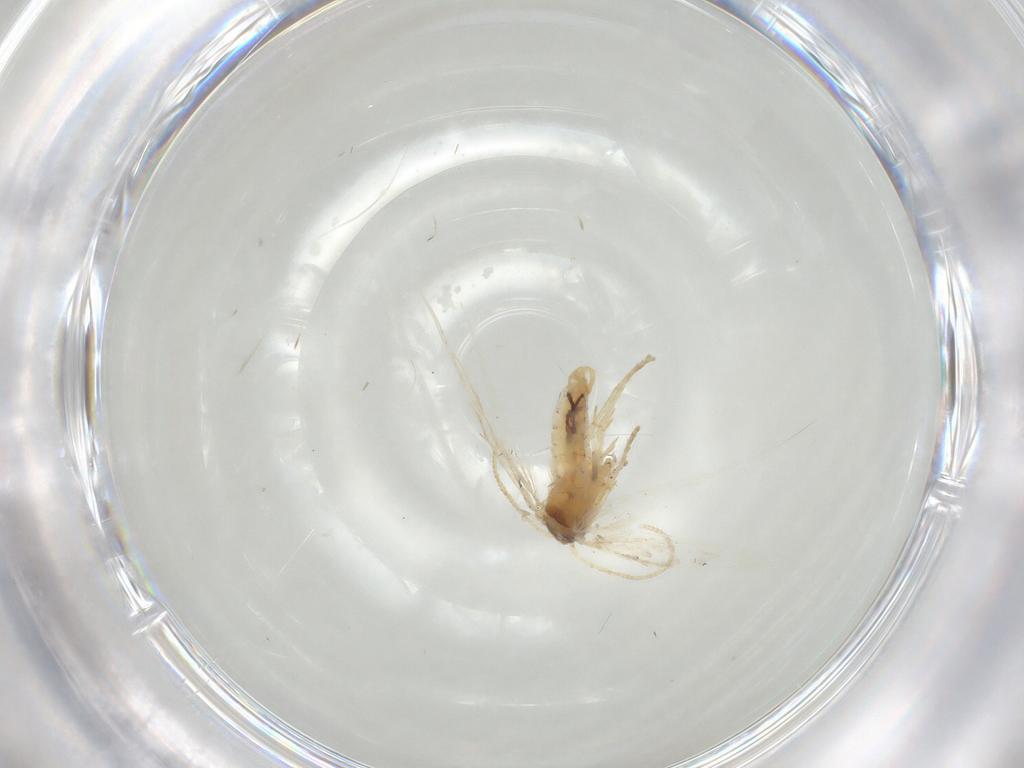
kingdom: Animalia
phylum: Arthropoda
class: Insecta
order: Lepidoptera
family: Nepticulidae
